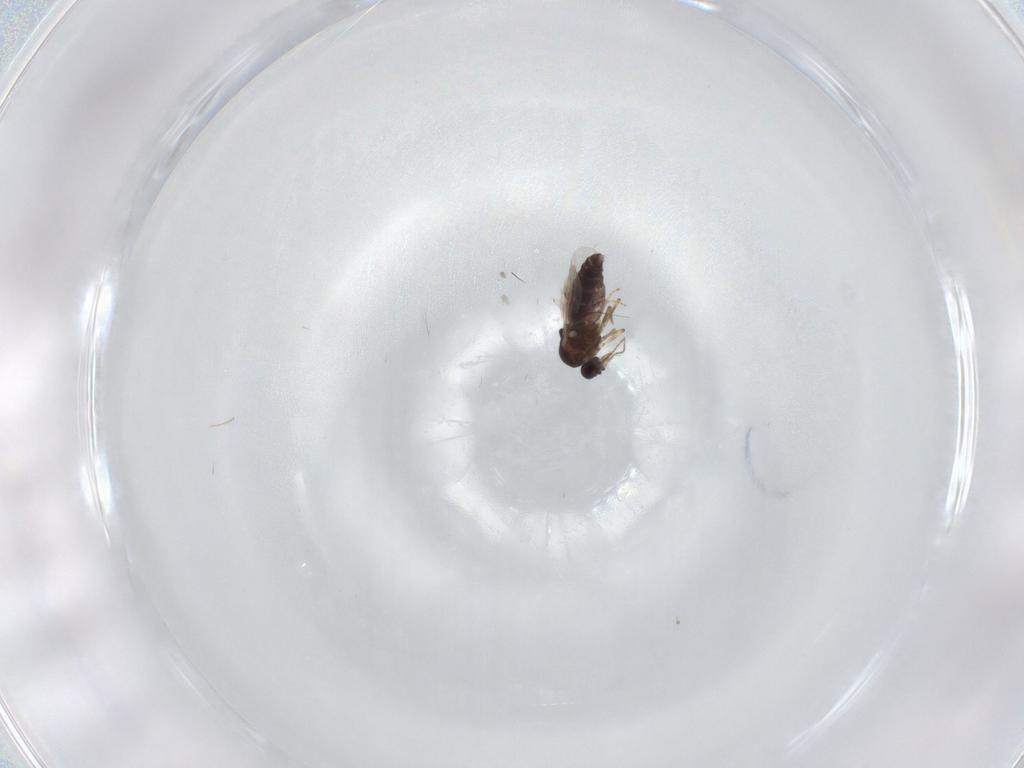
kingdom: Animalia
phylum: Arthropoda
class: Insecta
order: Diptera
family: Cecidomyiidae
